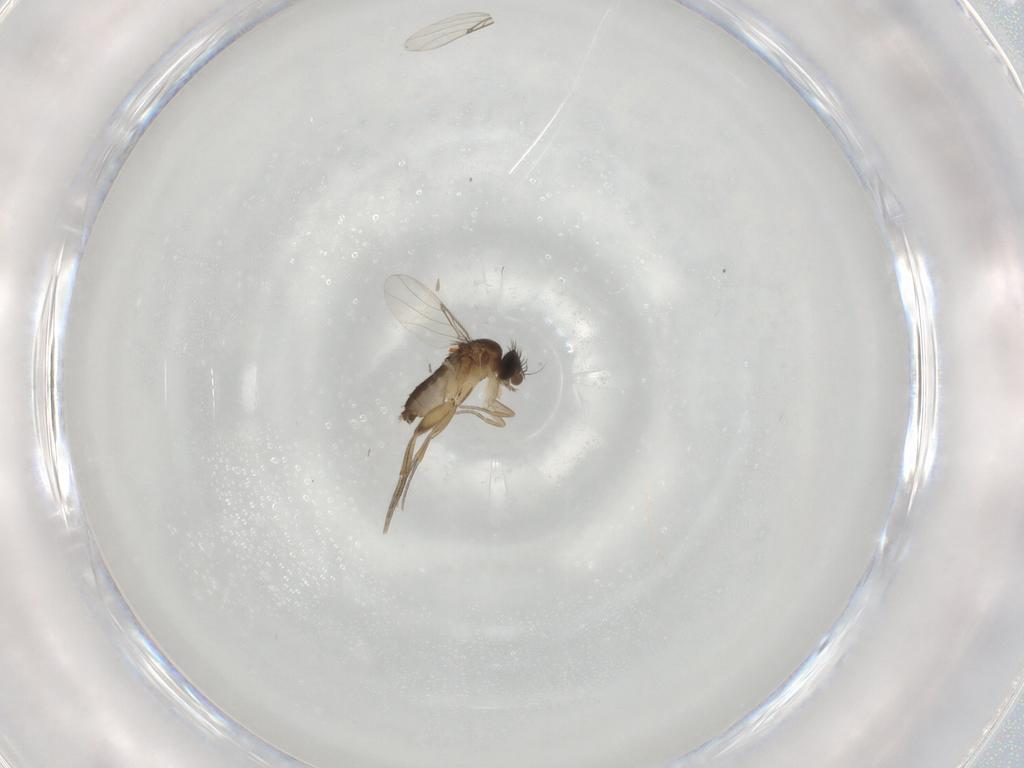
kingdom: Animalia
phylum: Arthropoda
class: Insecta
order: Diptera
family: Phoridae
